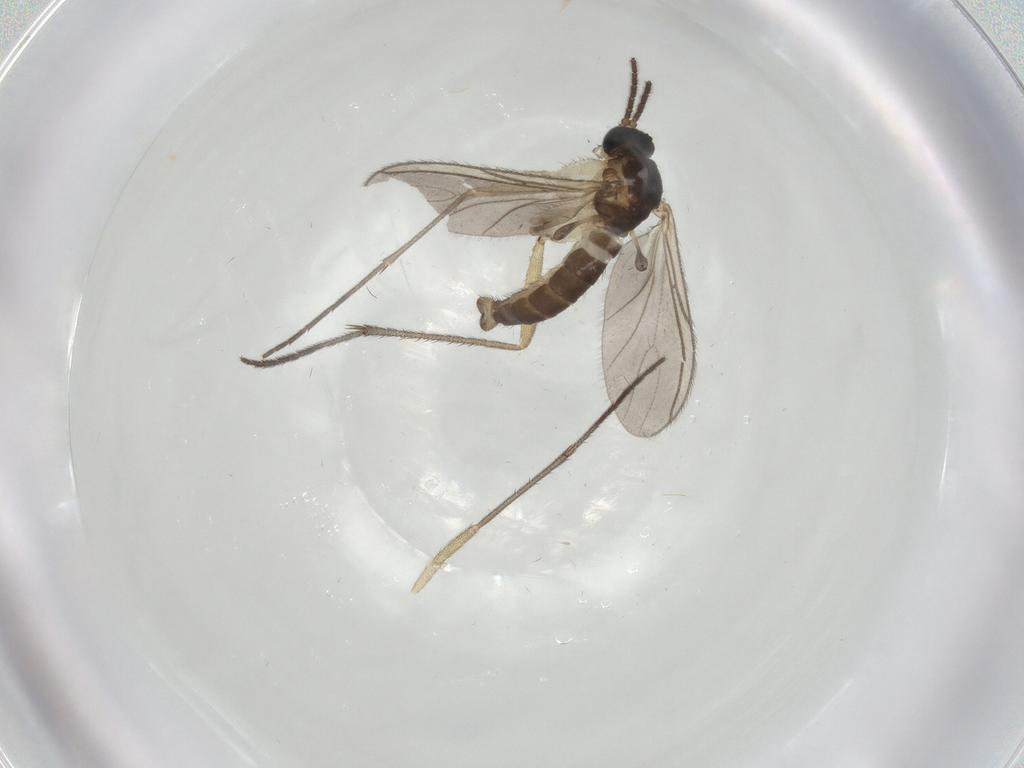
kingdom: Animalia
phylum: Arthropoda
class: Insecta
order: Diptera
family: Sciaridae
